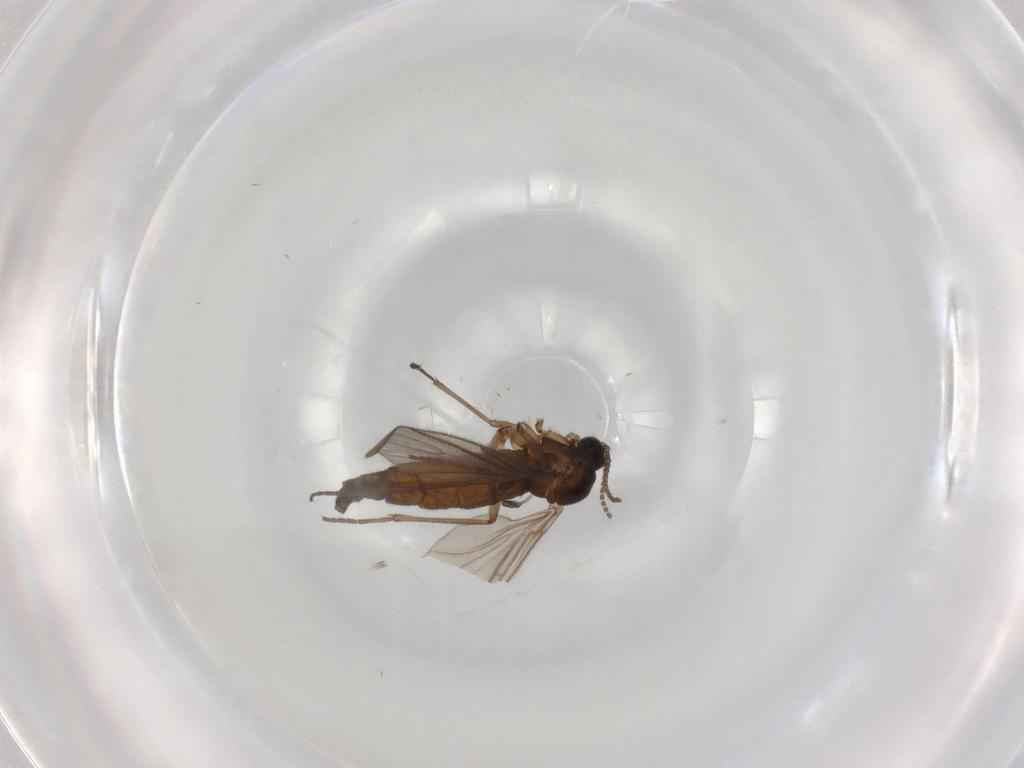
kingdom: Animalia
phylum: Arthropoda
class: Insecta
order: Diptera
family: Sciaridae
